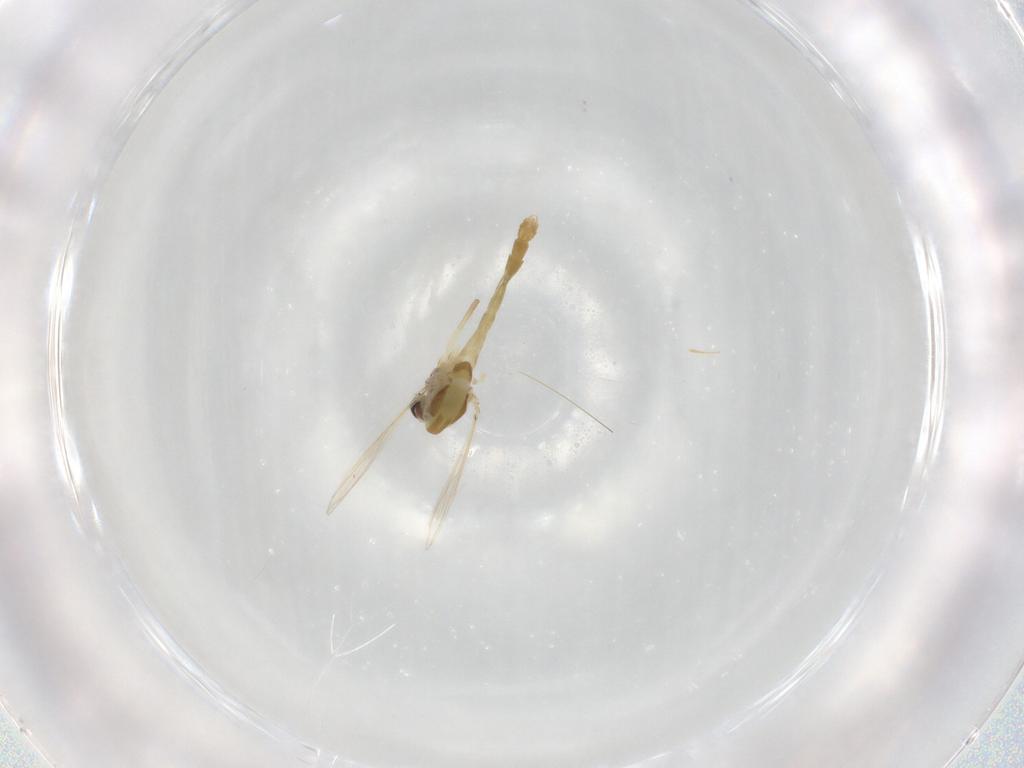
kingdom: Animalia
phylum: Arthropoda
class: Insecta
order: Diptera
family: Chironomidae
